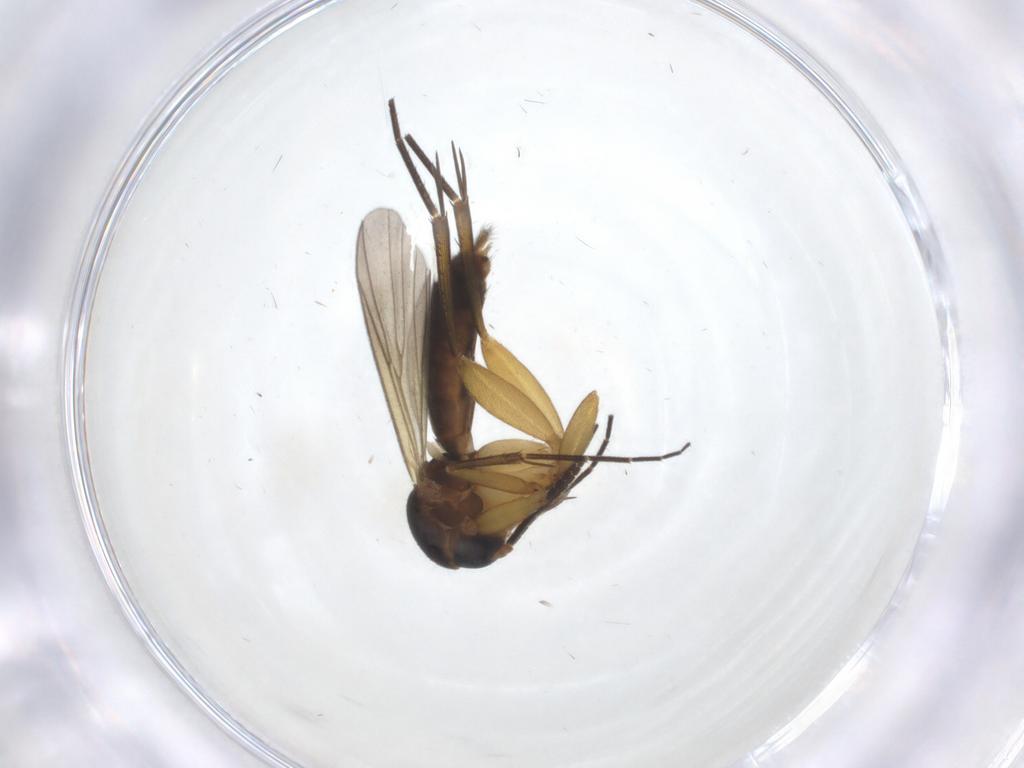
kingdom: Animalia
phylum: Arthropoda
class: Insecta
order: Diptera
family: Mycetophilidae
